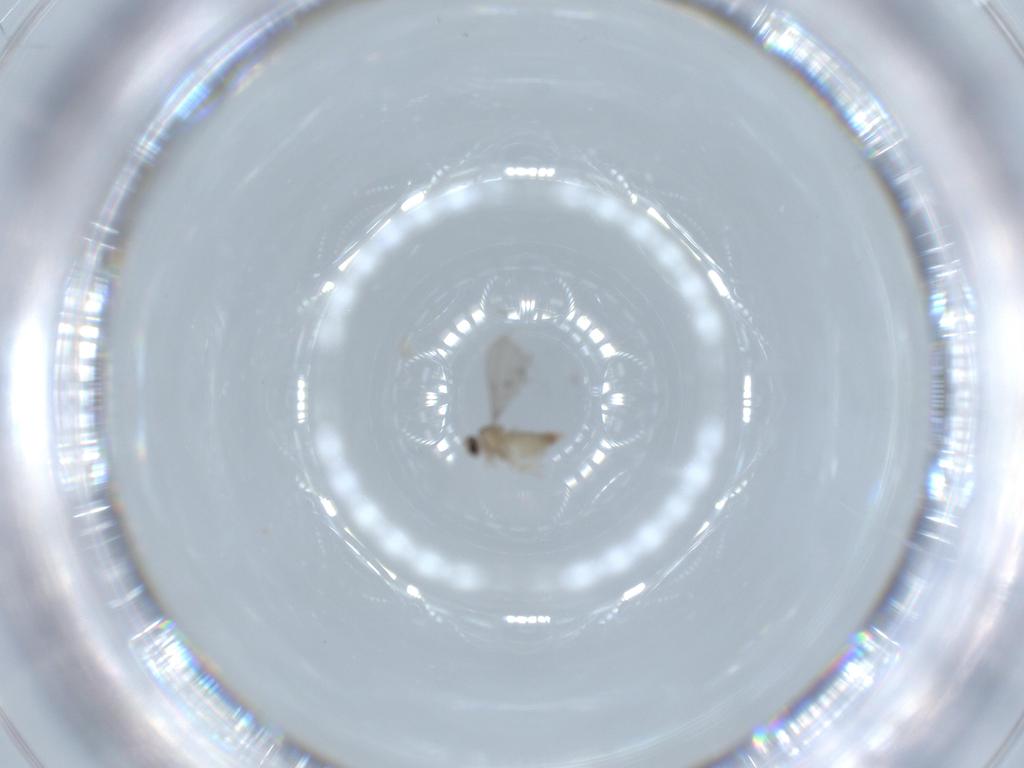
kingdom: Animalia
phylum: Arthropoda
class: Insecta
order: Diptera
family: Cecidomyiidae
